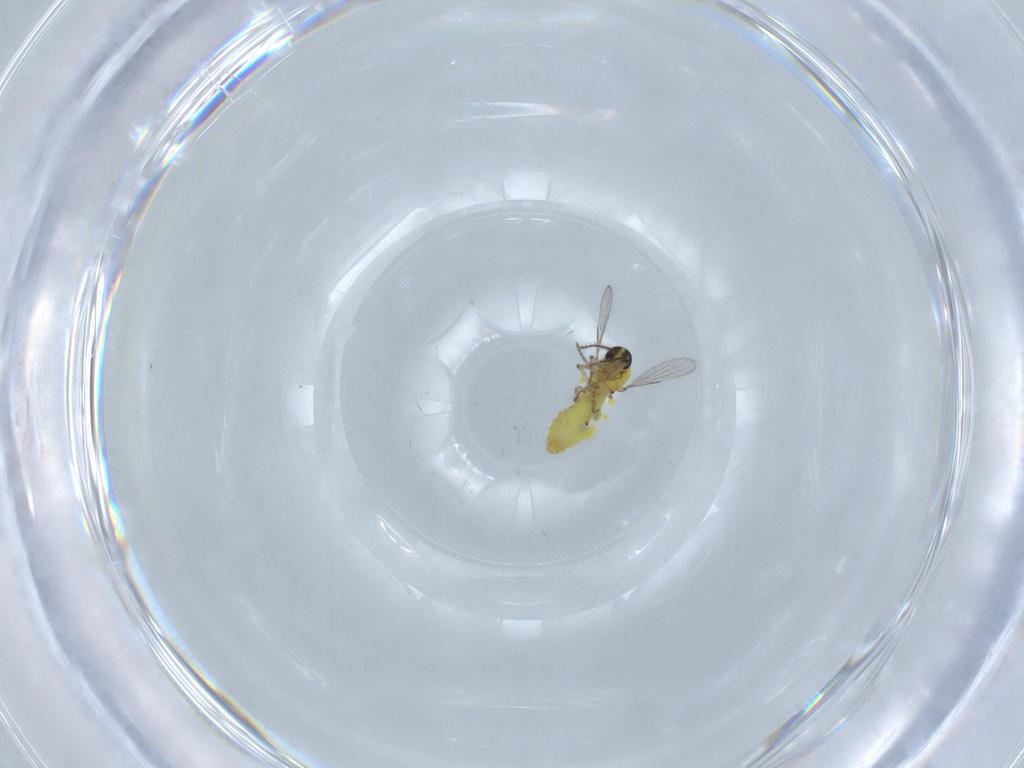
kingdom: Animalia
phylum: Arthropoda
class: Insecta
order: Diptera
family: Ceratopogonidae
